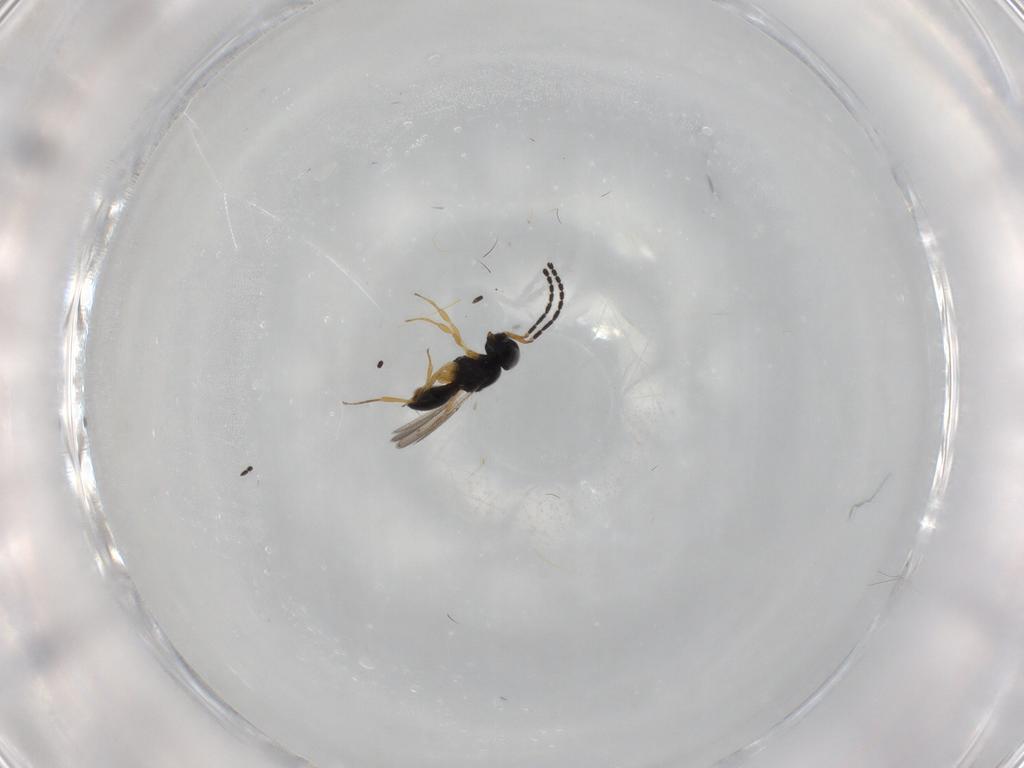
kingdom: Animalia
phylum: Arthropoda
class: Insecta
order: Hymenoptera
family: Scelionidae
